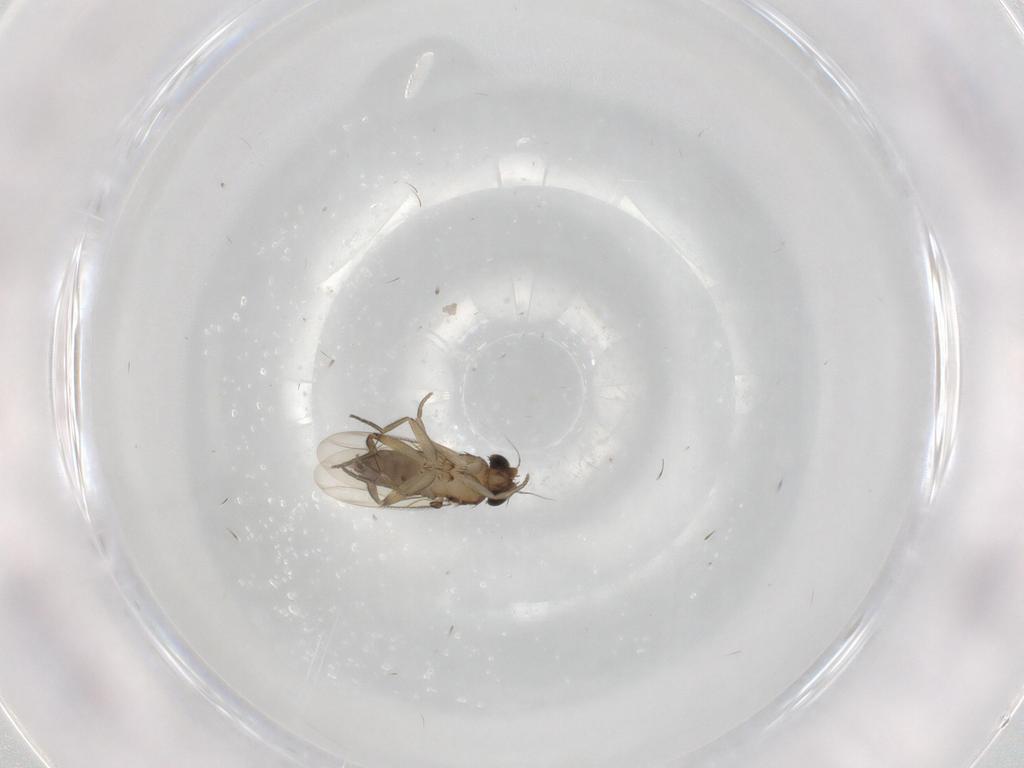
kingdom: Animalia
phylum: Arthropoda
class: Insecta
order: Diptera
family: Phoridae
